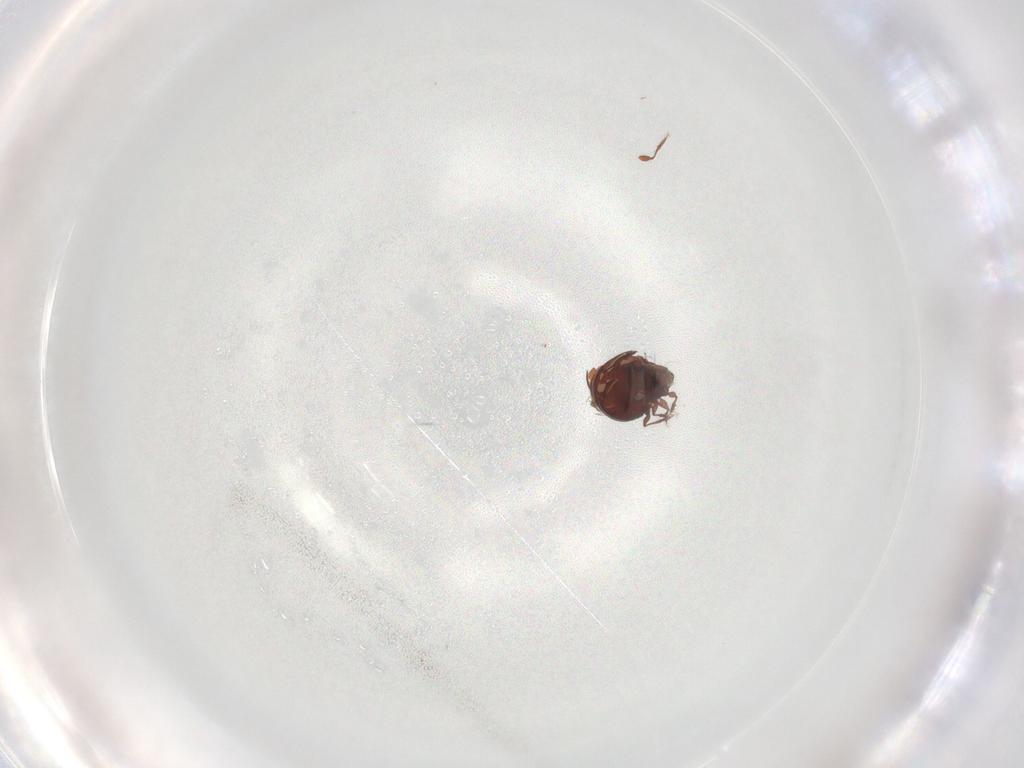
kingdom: Animalia
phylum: Arthropoda
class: Arachnida
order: Sarcoptiformes
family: Caloppiidae
